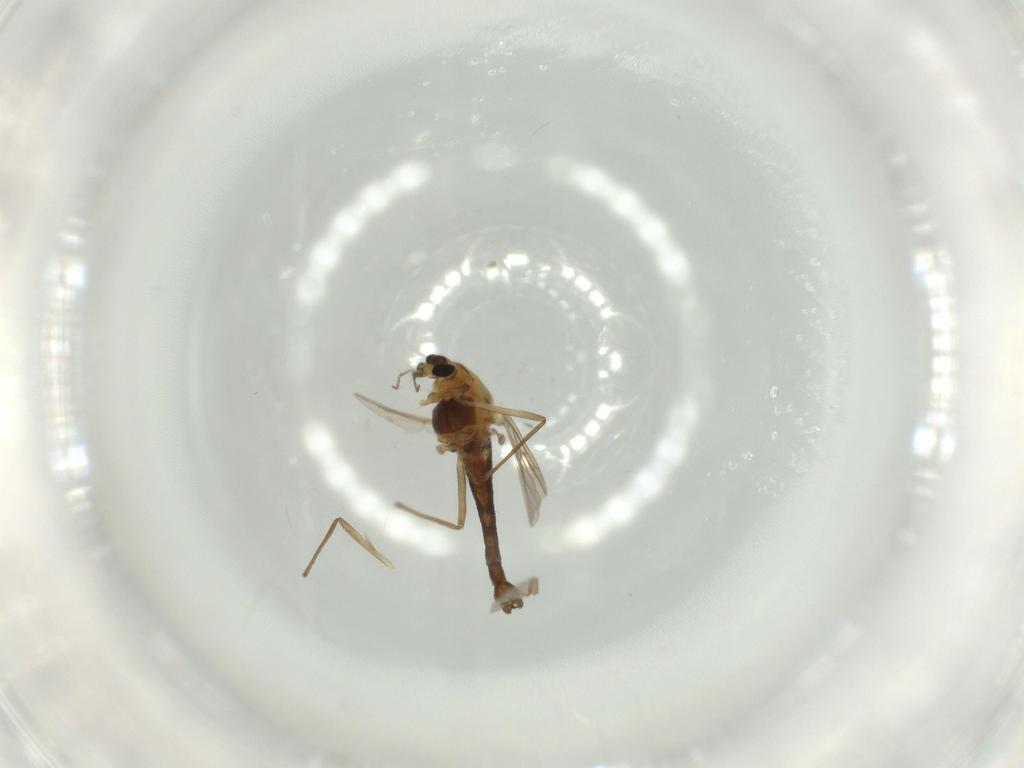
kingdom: Animalia
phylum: Arthropoda
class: Insecta
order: Diptera
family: Cecidomyiidae
